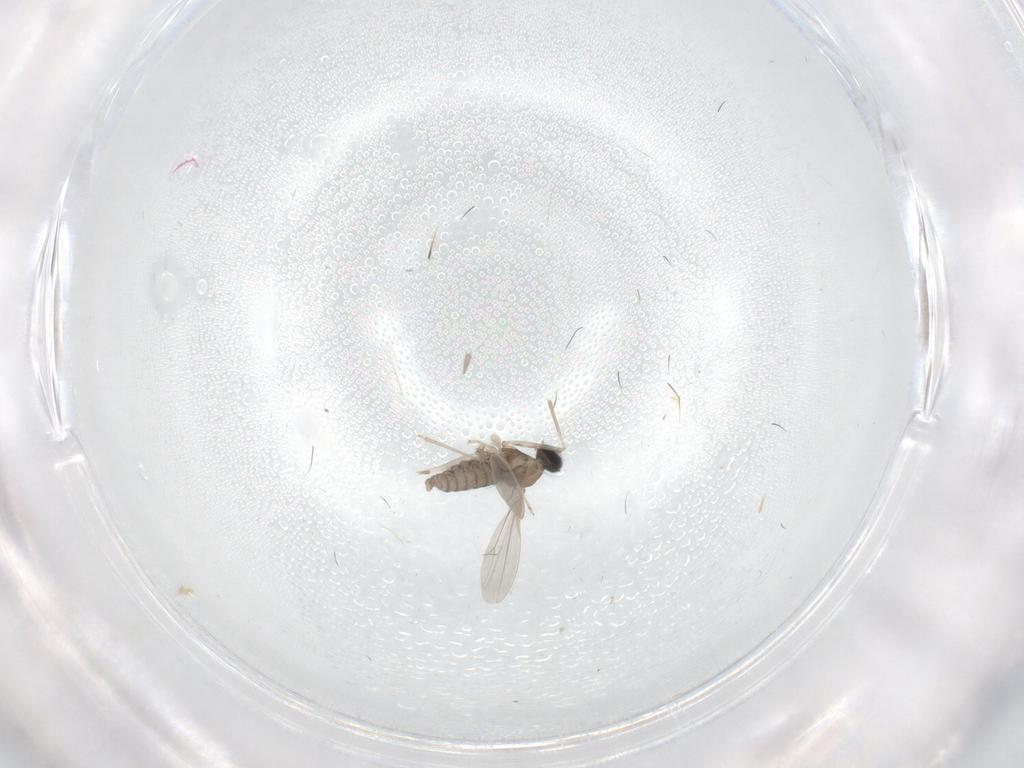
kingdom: Animalia
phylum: Arthropoda
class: Insecta
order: Diptera
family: Cecidomyiidae
